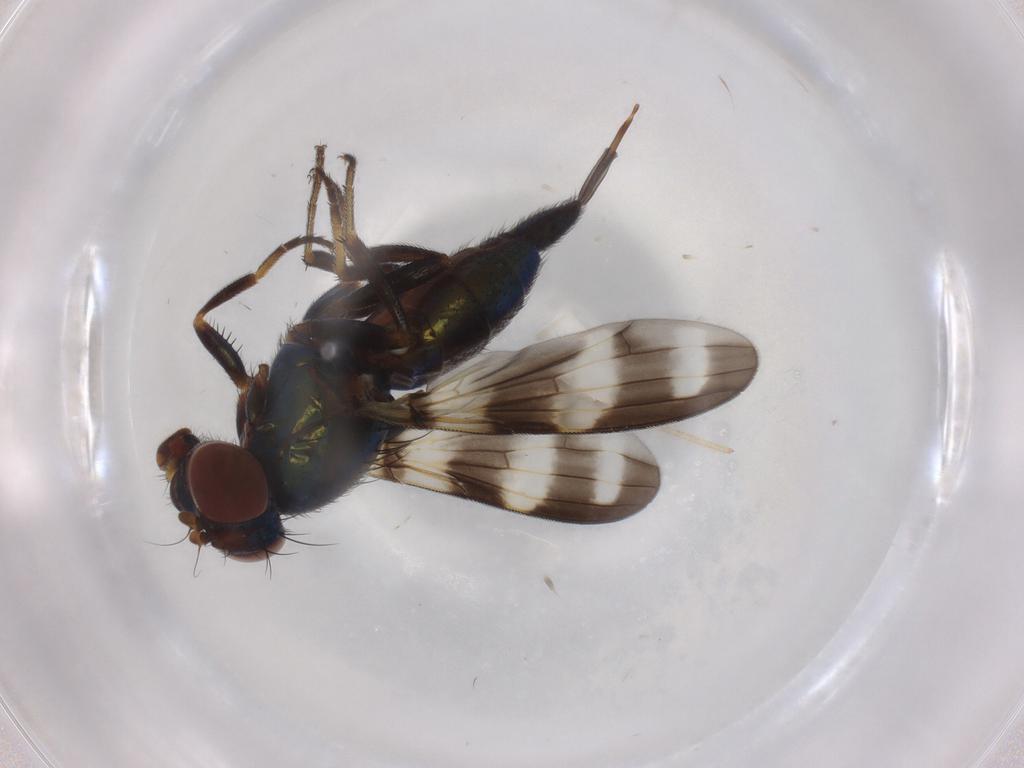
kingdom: Animalia
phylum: Arthropoda
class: Insecta
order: Diptera
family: Ulidiidae
